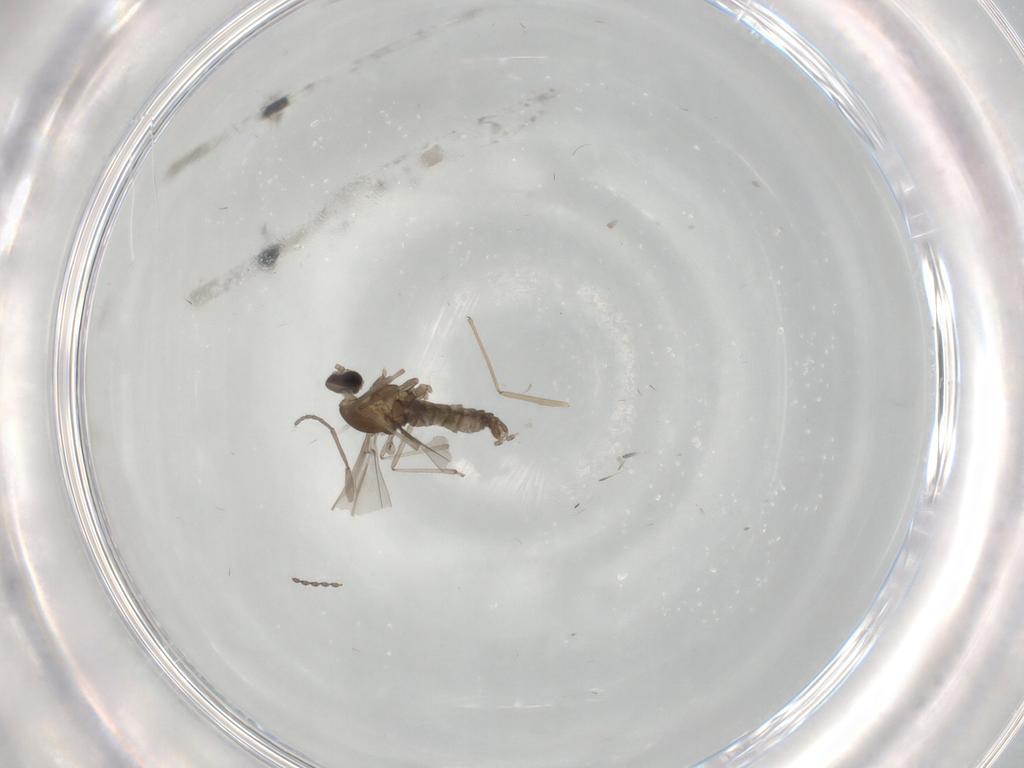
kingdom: Animalia
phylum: Arthropoda
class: Insecta
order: Diptera
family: Cecidomyiidae
